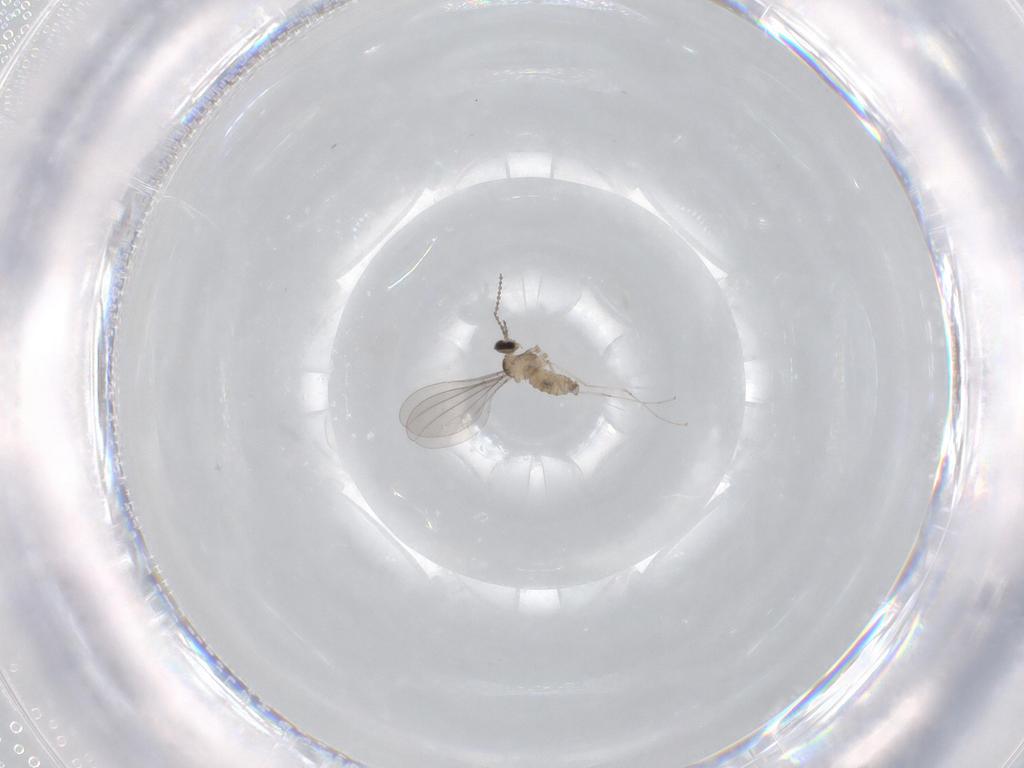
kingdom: Animalia
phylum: Arthropoda
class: Insecta
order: Diptera
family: Cecidomyiidae
